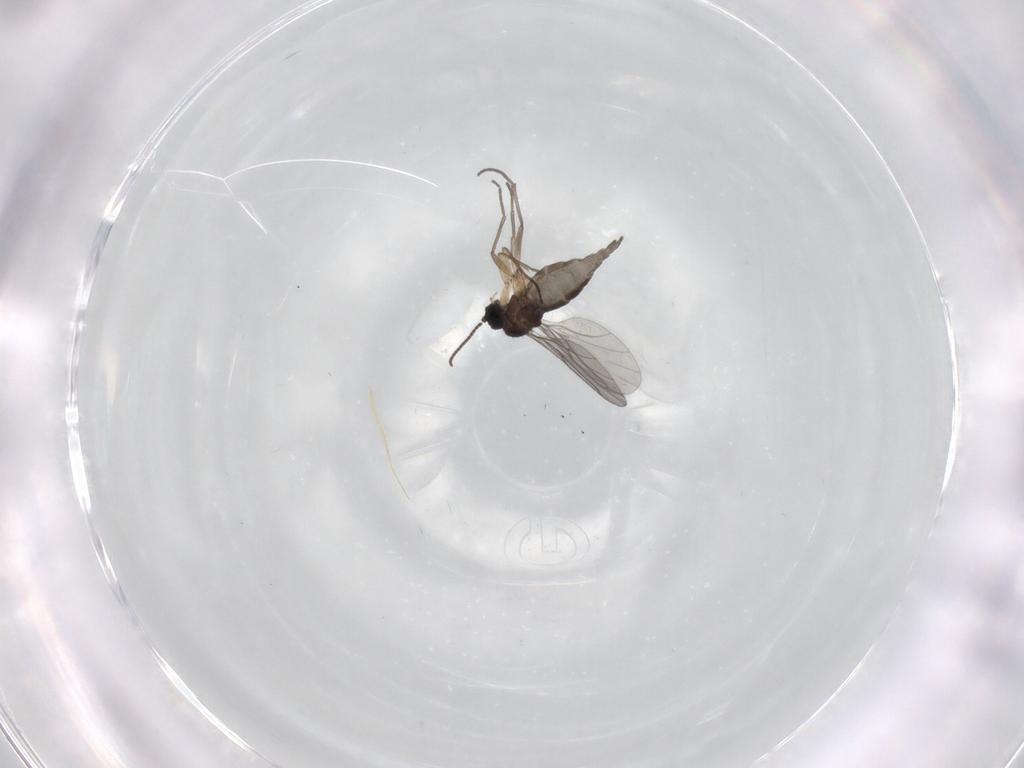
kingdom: Animalia
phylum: Arthropoda
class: Insecta
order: Diptera
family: Sciaridae
